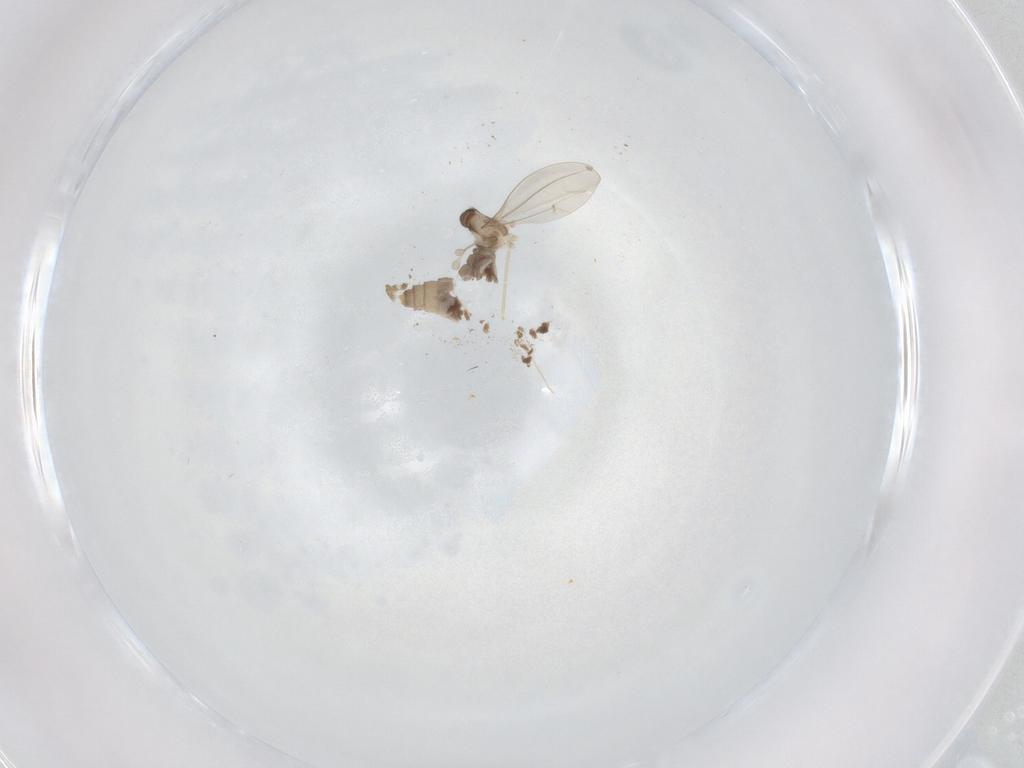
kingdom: Animalia
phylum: Arthropoda
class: Insecta
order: Diptera
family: Cecidomyiidae
